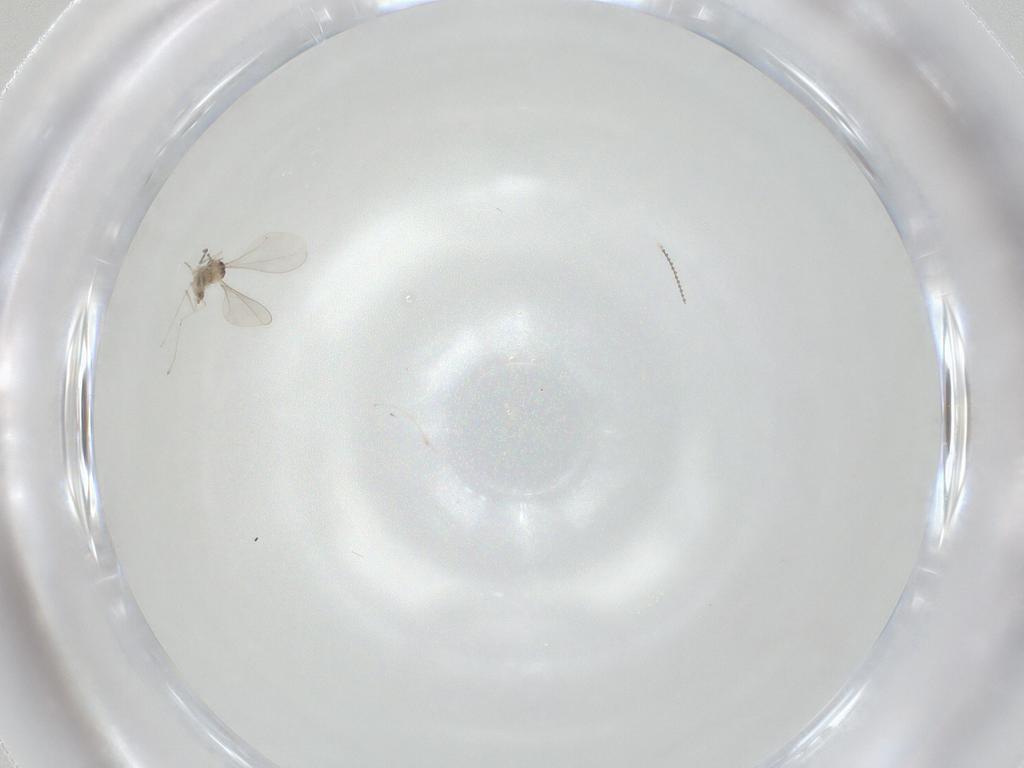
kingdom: Animalia
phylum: Arthropoda
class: Insecta
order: Diptera
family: Cecidomyiidae
